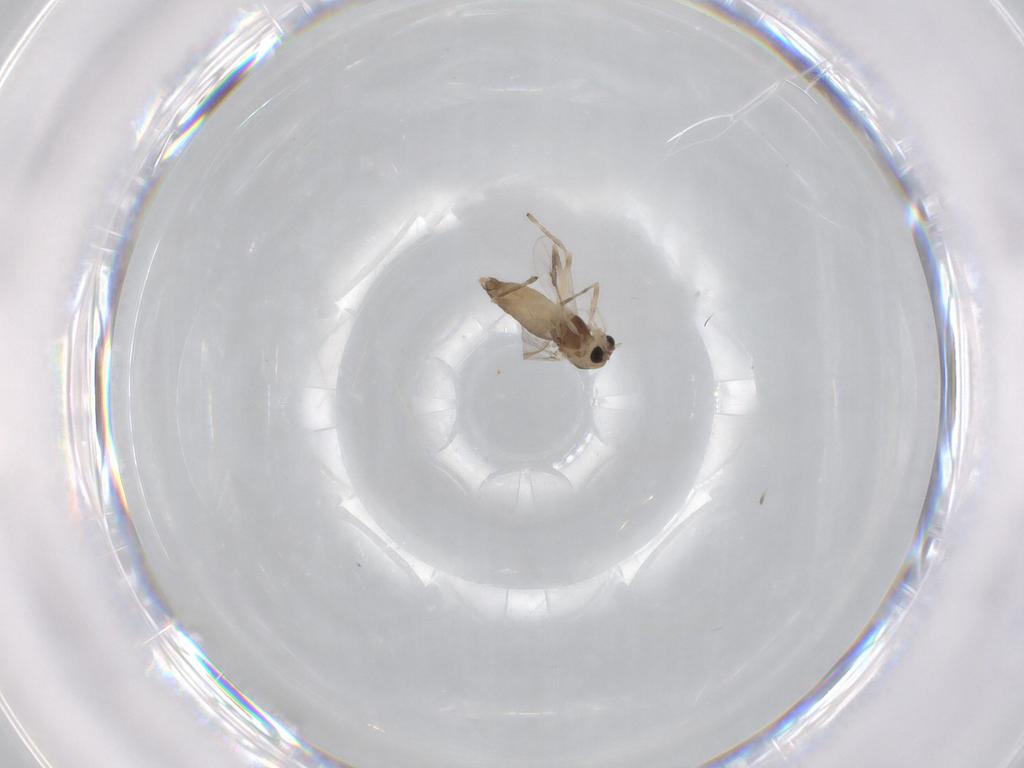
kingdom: Animalia
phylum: Arthropoda
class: Insecta
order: Diptera
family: Chironomidae
